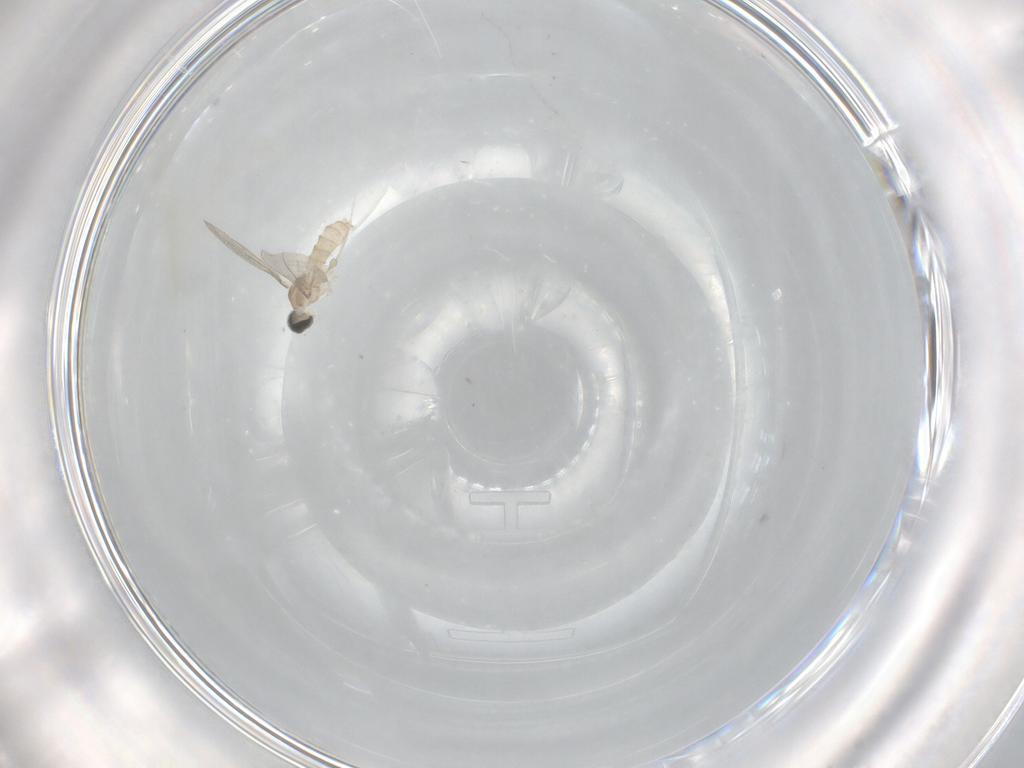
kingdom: Animalia
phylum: Arthropoda
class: Insecta
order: Diptera
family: Cecidomyiidae
